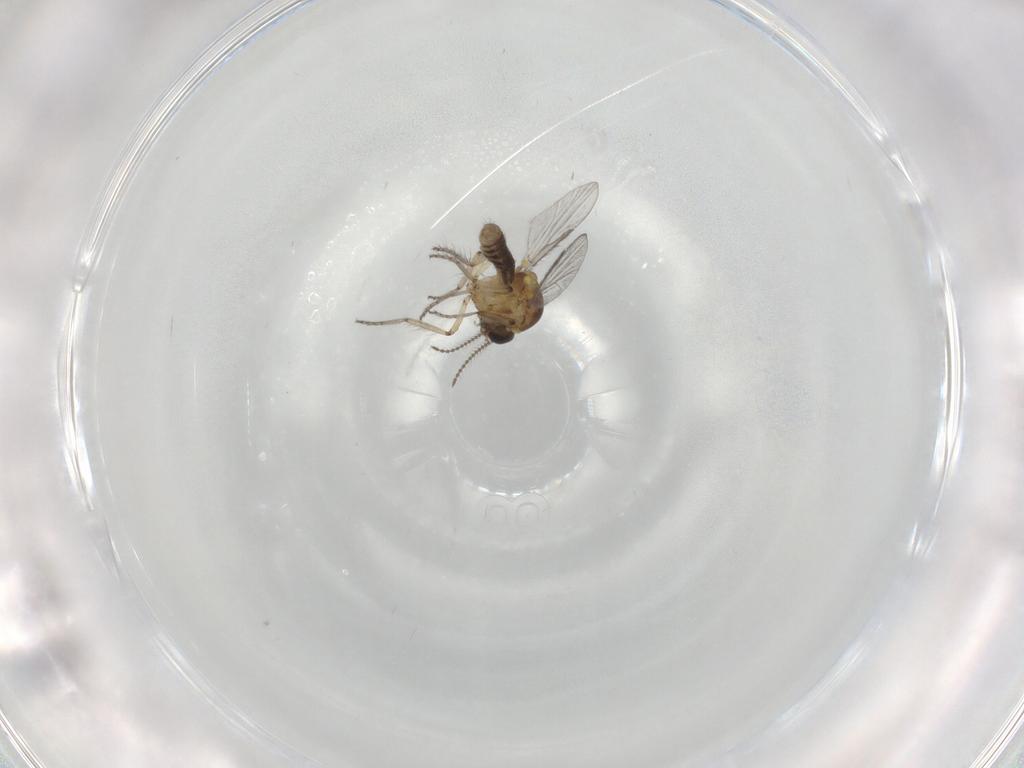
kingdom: Animalia
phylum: Arthropoda
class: Insecta
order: Diptera
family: Ceratopogonidae
